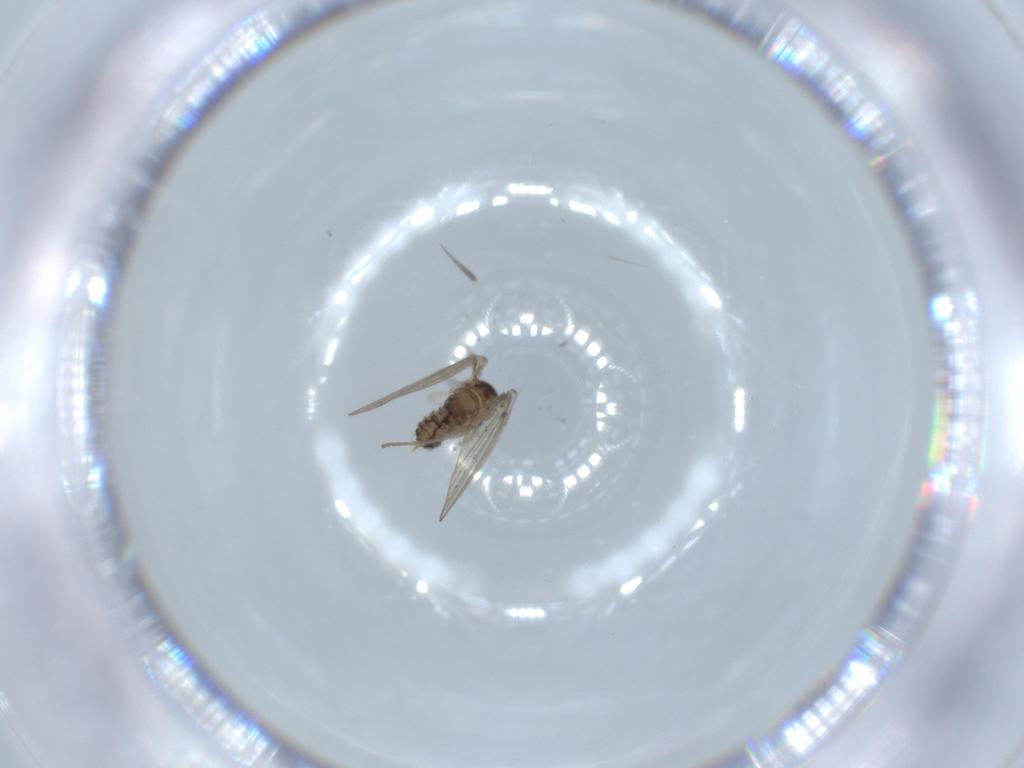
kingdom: Animalia
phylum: Arthropoda
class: Insecta
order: Diptera
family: Psychodidae
